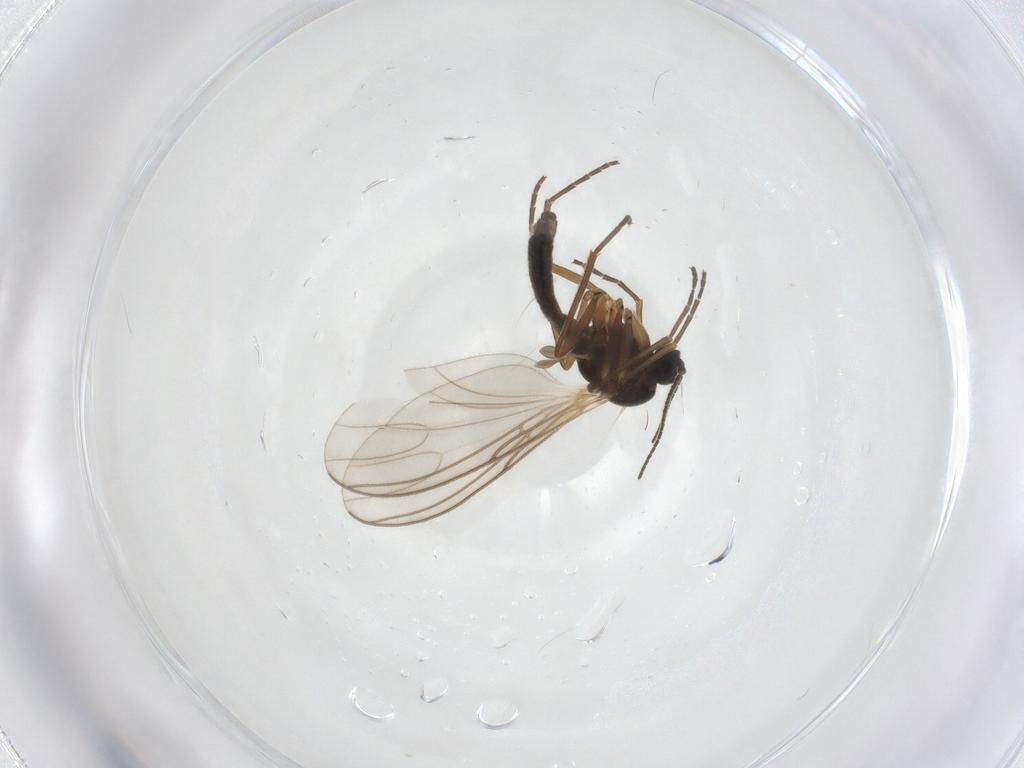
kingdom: Animalia
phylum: Arthropoda
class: Insecta
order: Diptera
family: Sciaridae
